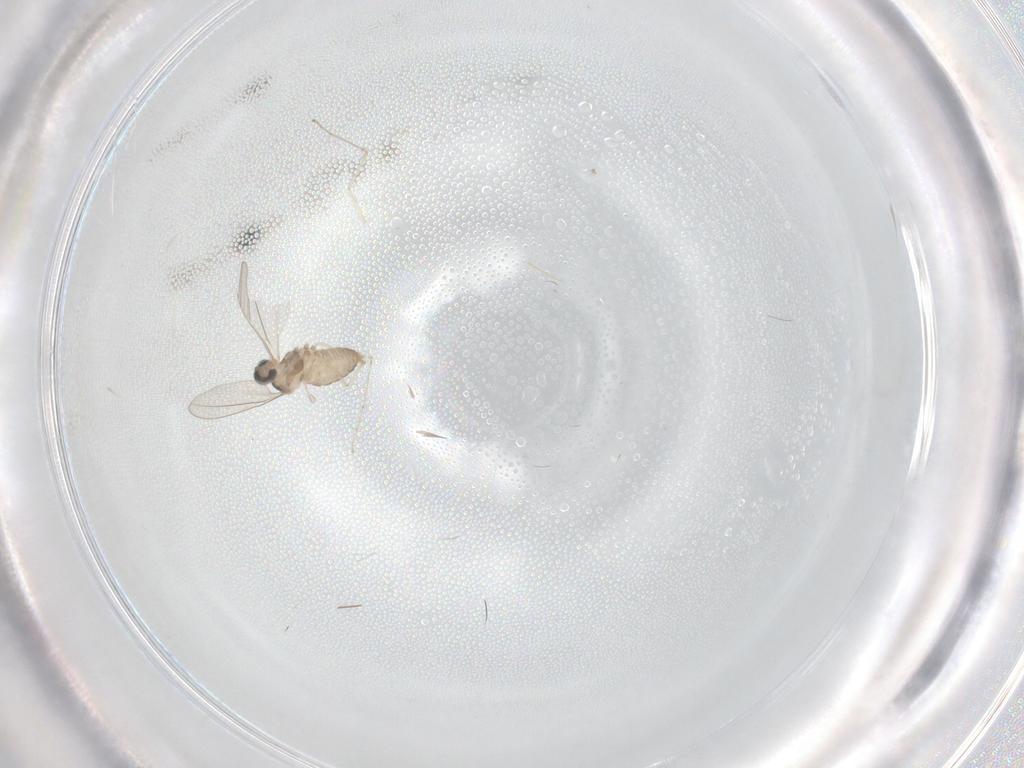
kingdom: Animalia
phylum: Arthropoda
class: Insecta
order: Diptera
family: Cecidomyiidae
